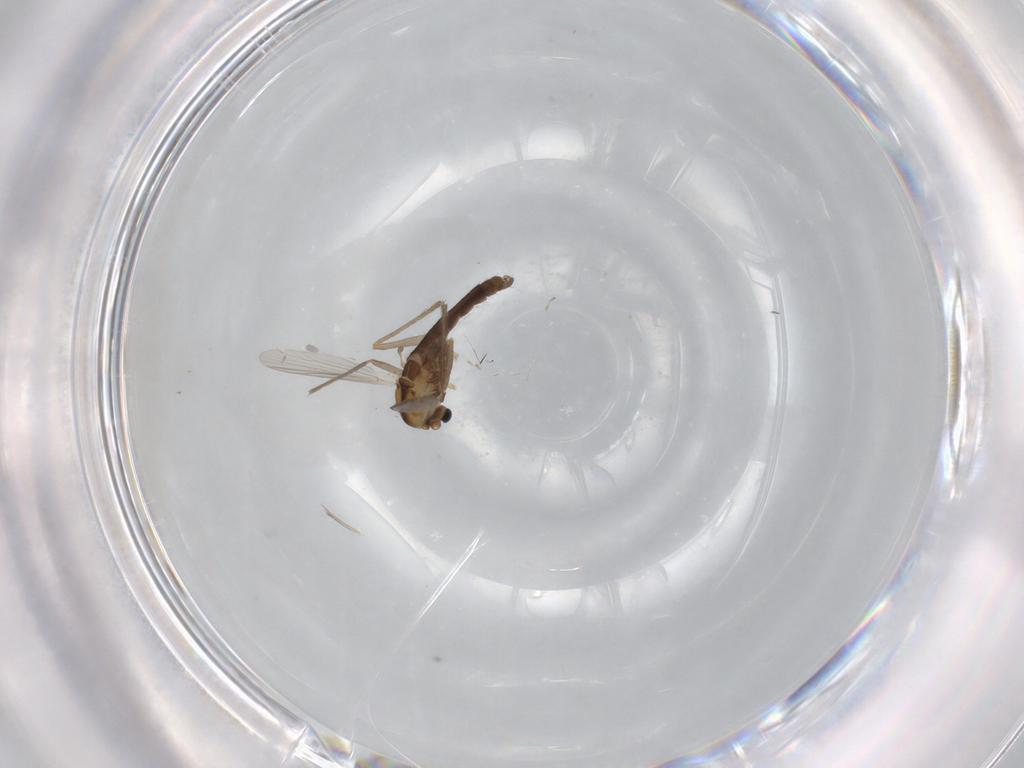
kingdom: Animalia
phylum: Arthropoda
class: Insecta
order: Diptera
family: Chironomidae
